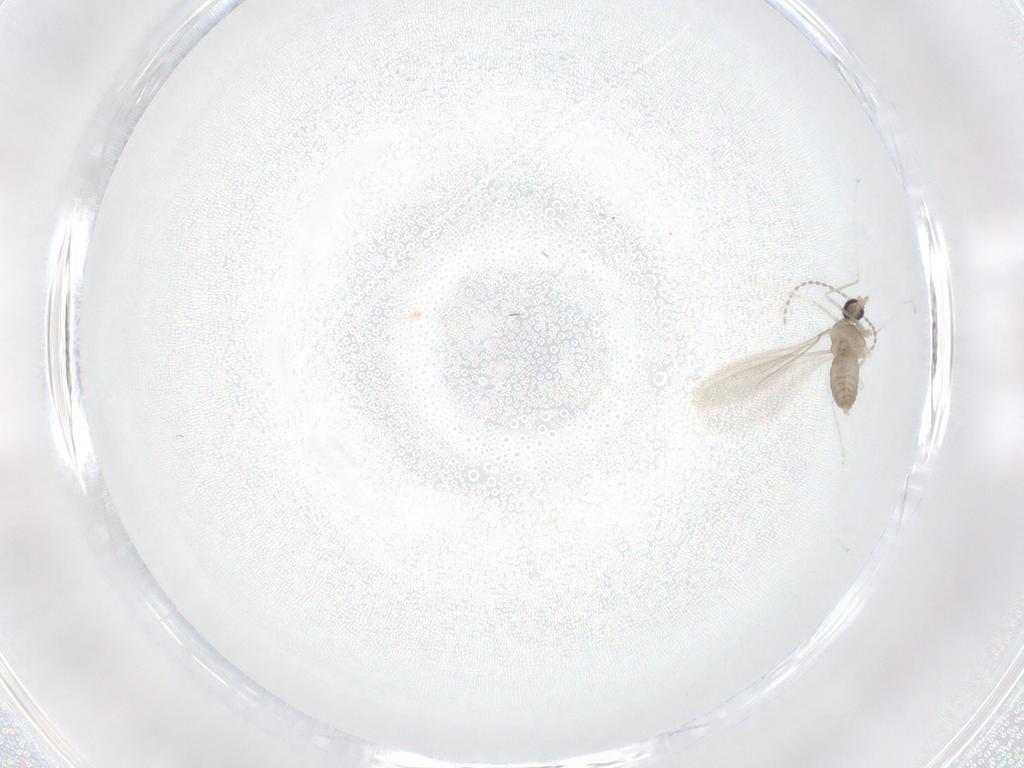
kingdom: Animalia
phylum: Arthropoda
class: Insecta
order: Diptera
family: Cecidomyiidae
